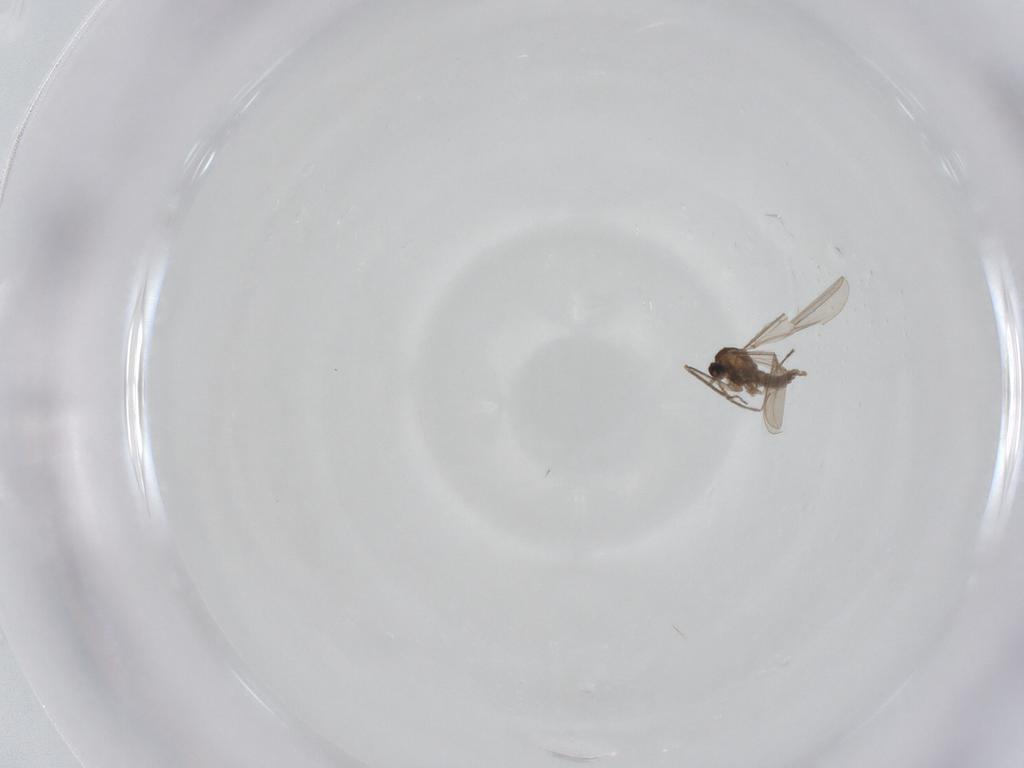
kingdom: Animalia
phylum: Arthropoda
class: Insecta
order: Diptera
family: Cecidomyiidae
